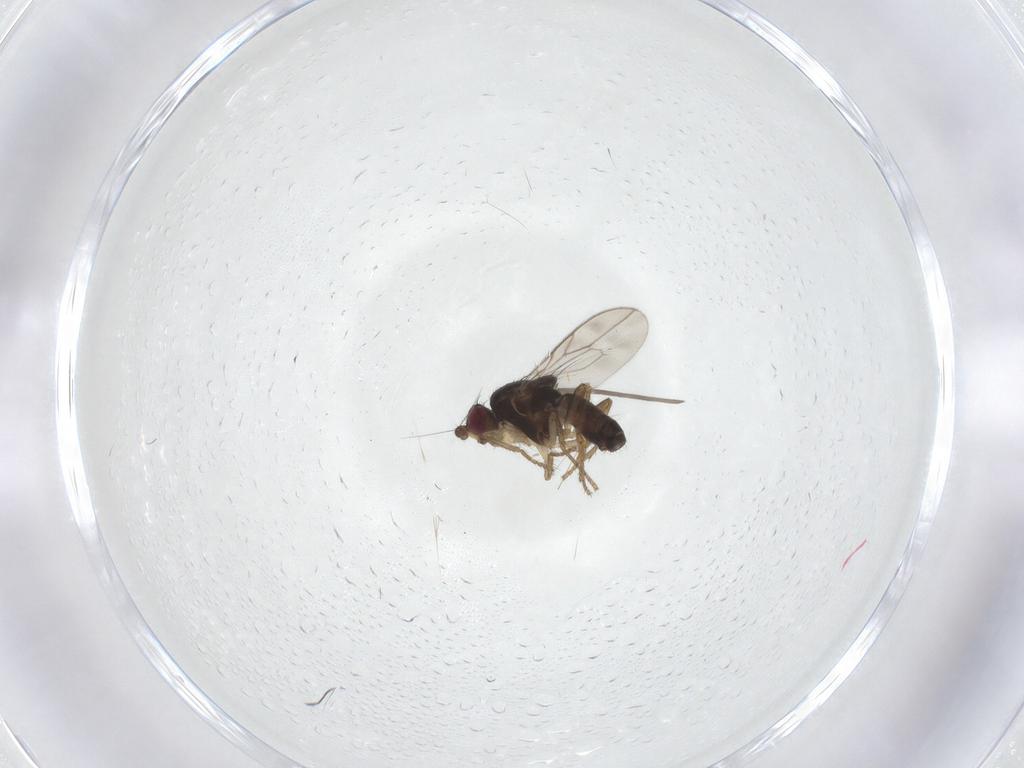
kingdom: Animalia
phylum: Arthropoda
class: Insecta
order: Diptera
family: Sphaeroceridae
